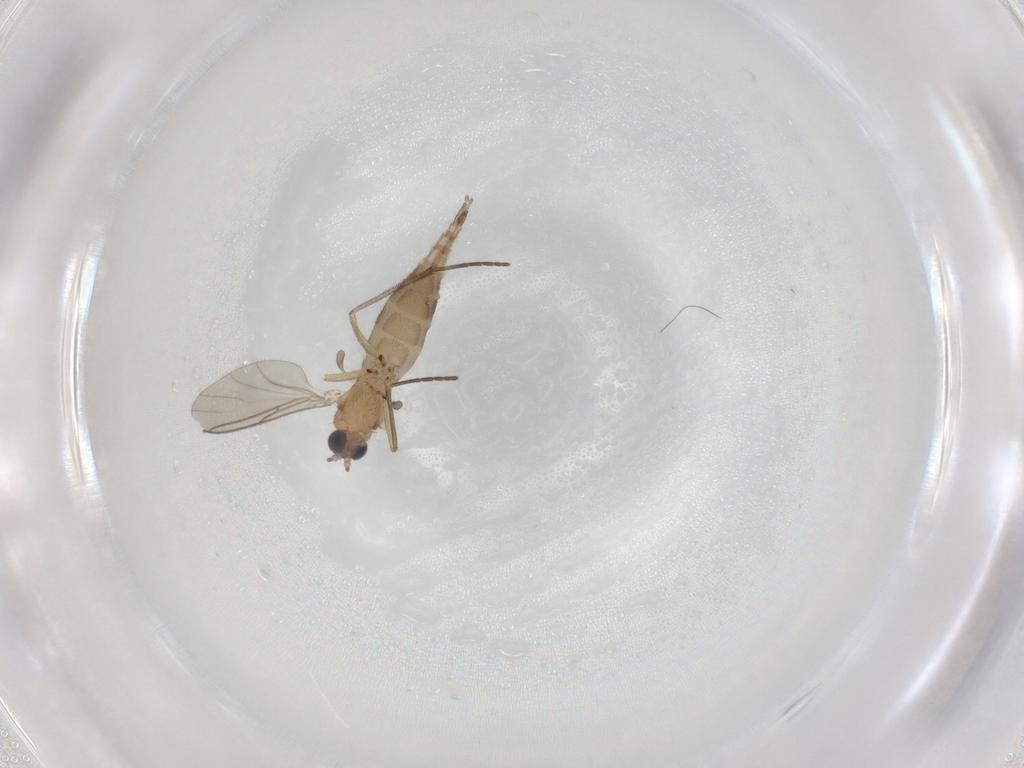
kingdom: Animalia
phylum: Arthropoda
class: Insecta
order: Diptera
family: Sciaridae
